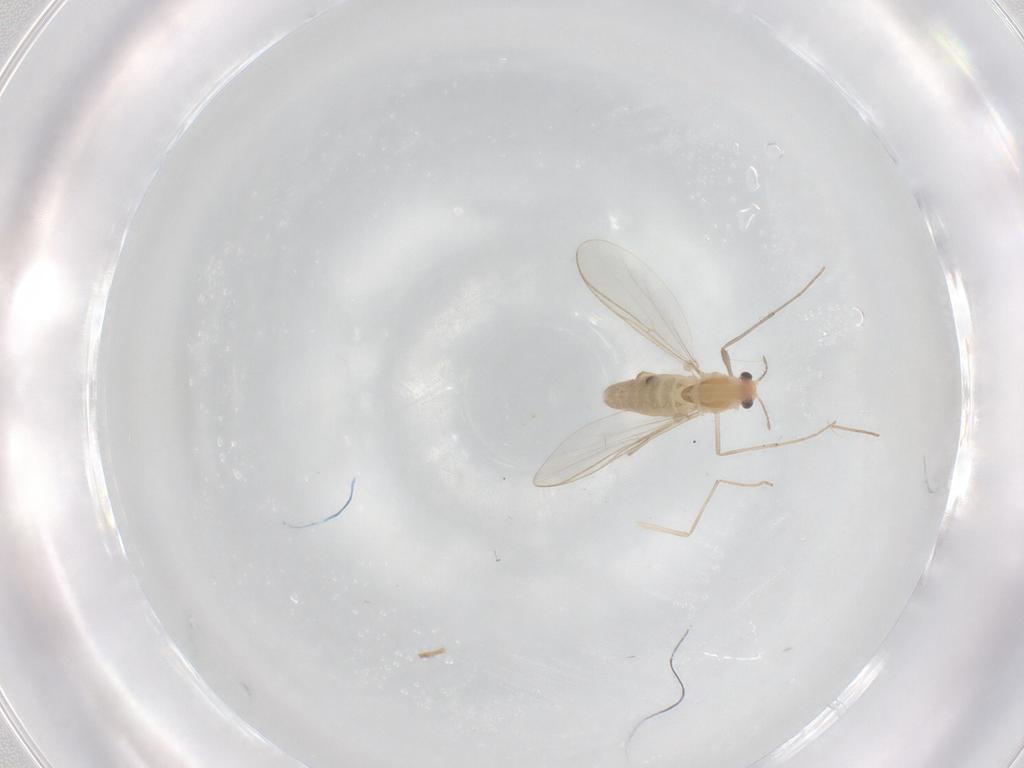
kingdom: Animalia
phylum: Arthropoda
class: Insecta
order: Diptera
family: Chironomidae
